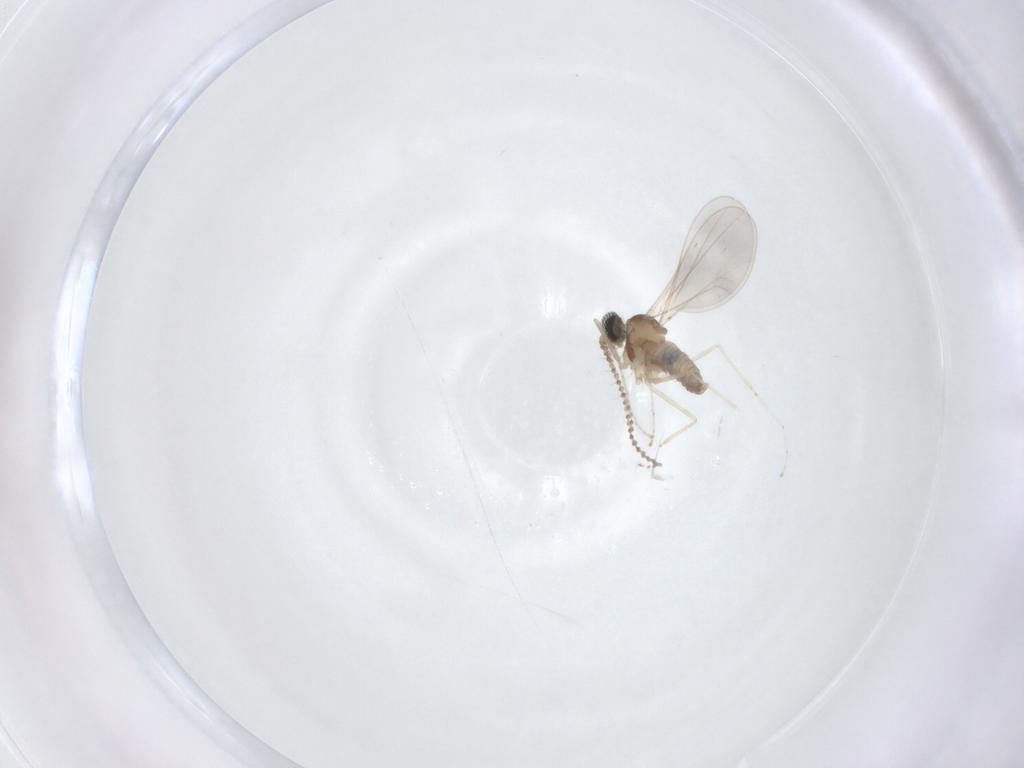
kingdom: Animalia
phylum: Arthropoda
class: Insecta
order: Diptera
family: Cecidomyiidae
